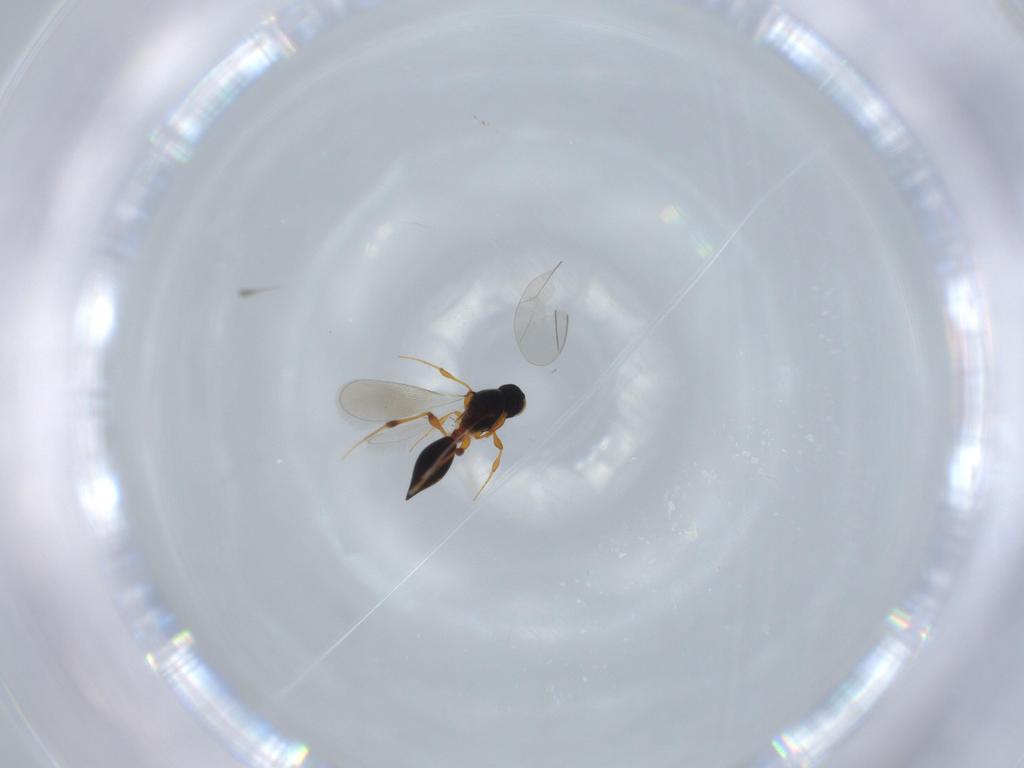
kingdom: Animalia
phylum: Arthropoda
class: Insecta
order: Hymenoptera
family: Platygastridae
